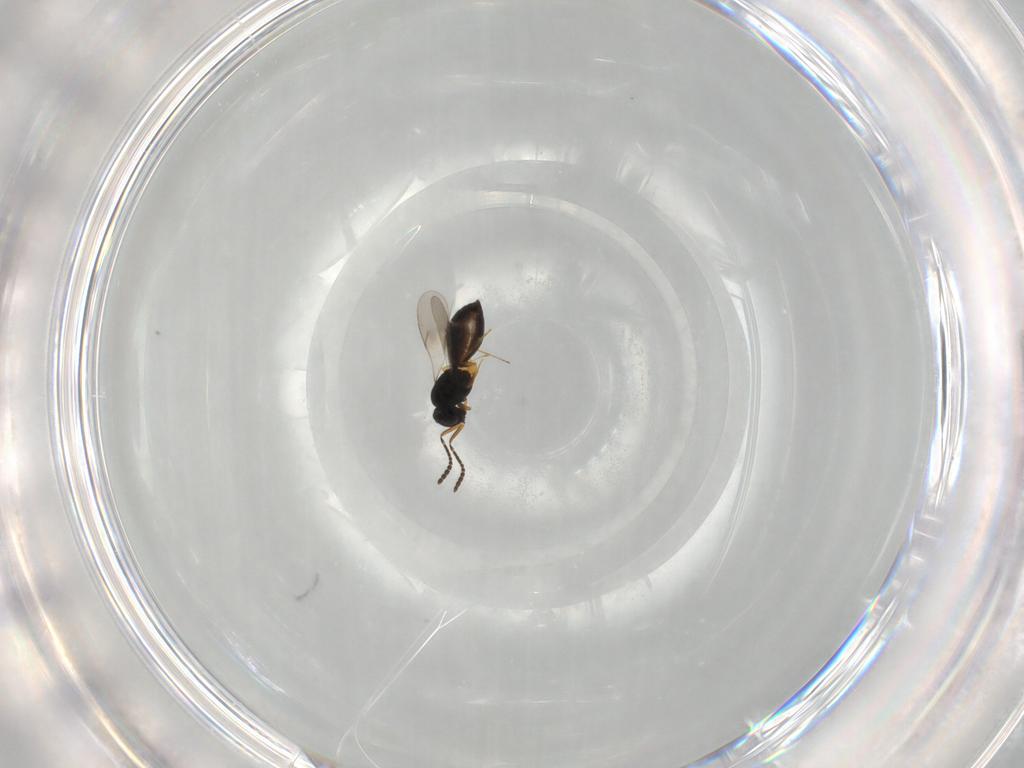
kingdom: Animalia
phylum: Arthropoda
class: Insecta
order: Hymenoptera
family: Scelionidae
